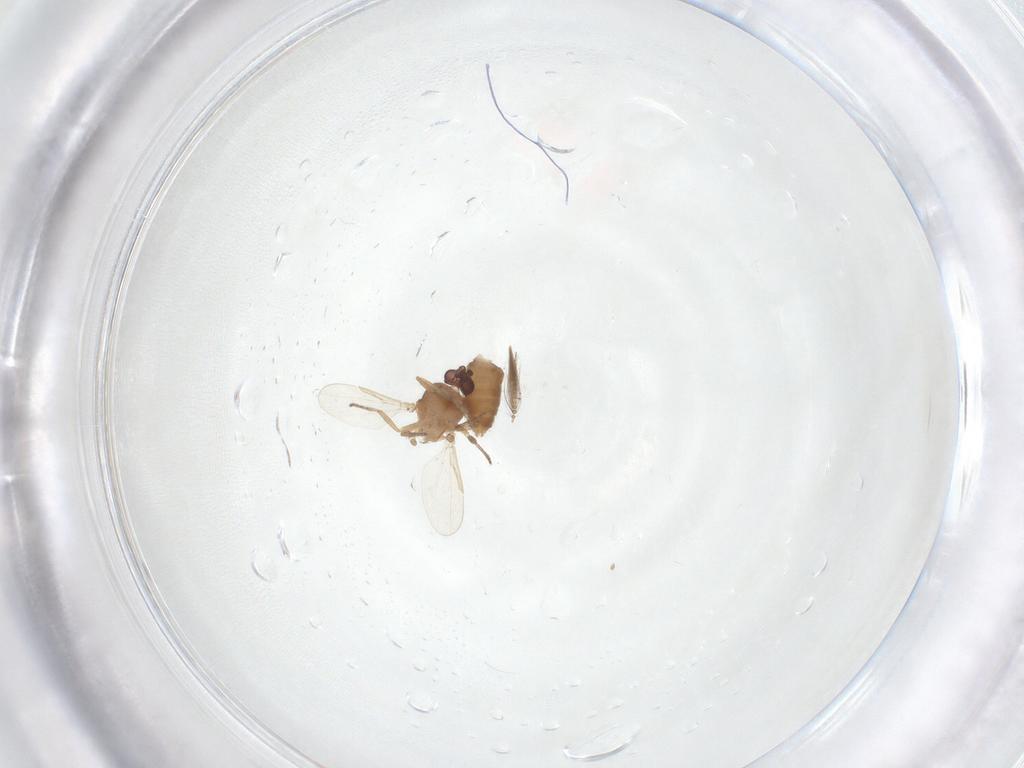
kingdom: Animalia
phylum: Arthropoda
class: Insecta
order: Diptera
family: Ceratopogonidae
